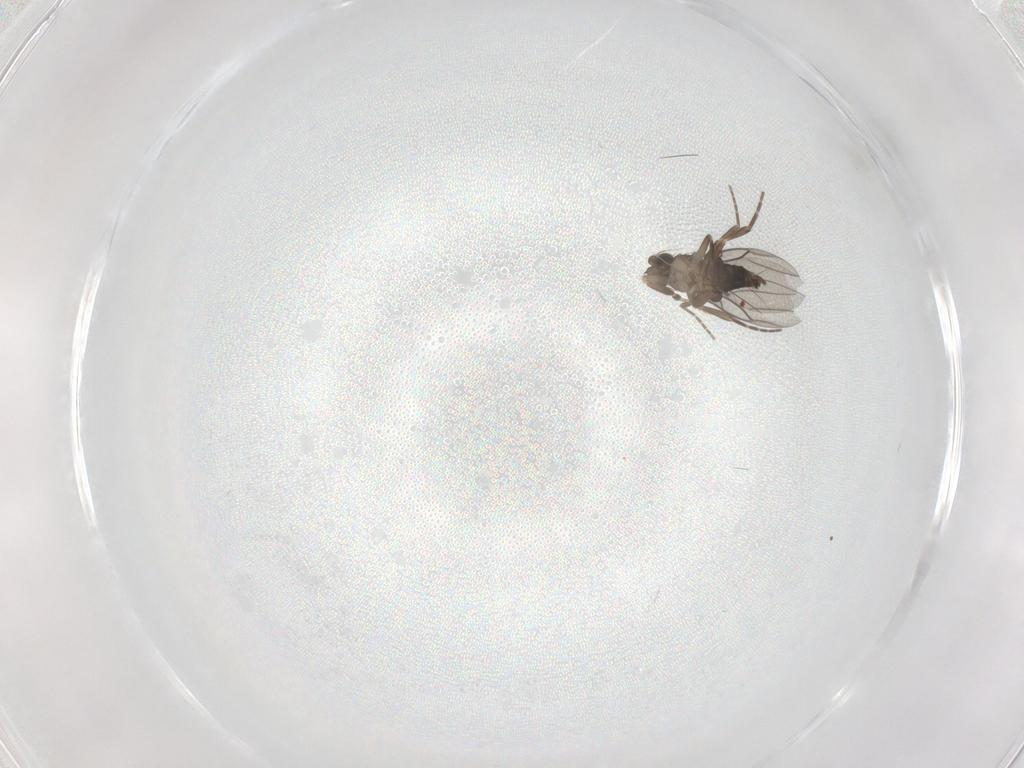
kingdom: Animalia
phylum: Arthropoda
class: Insecta
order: Diptera
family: Chironomidae
